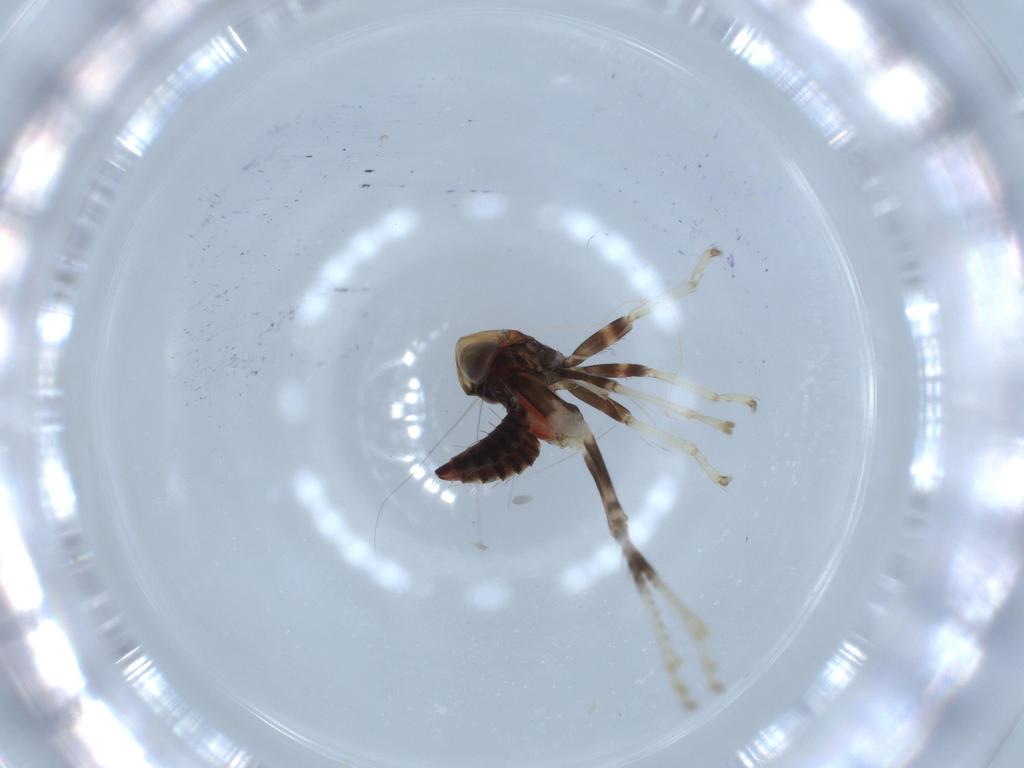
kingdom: Animalia
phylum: Arthropoda
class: Insecta
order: Hemiptera
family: Cicadellidae
